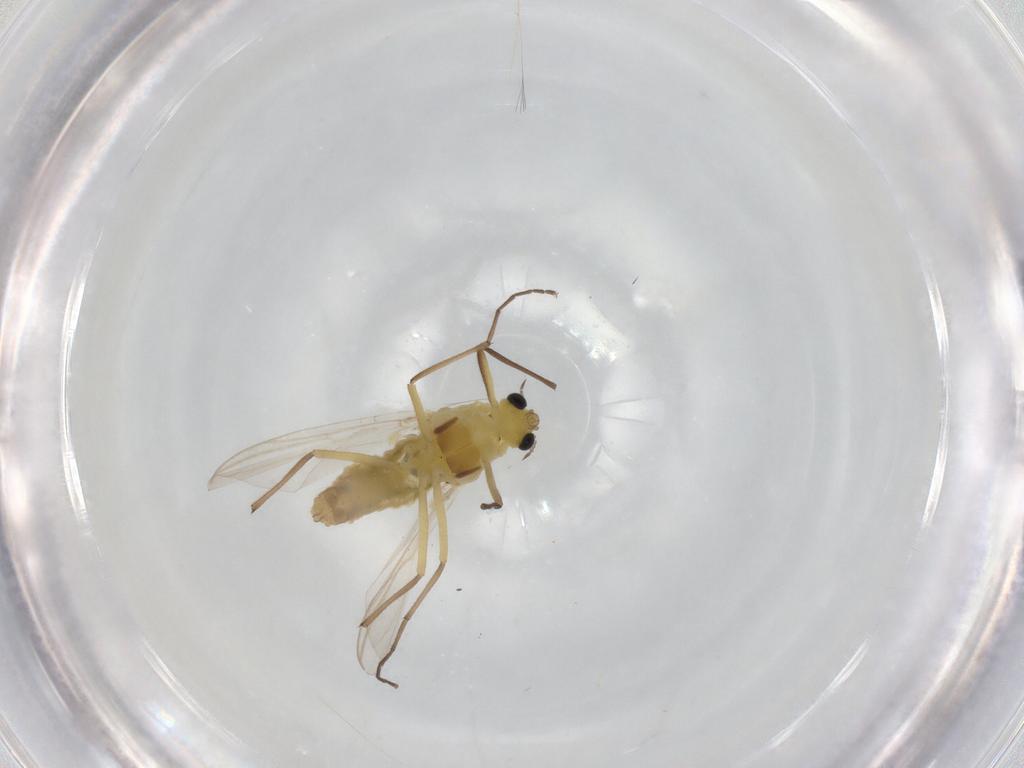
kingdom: Animalia
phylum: Arthropoda
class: Insecta
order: Diptera
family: Ceratopogonidae
